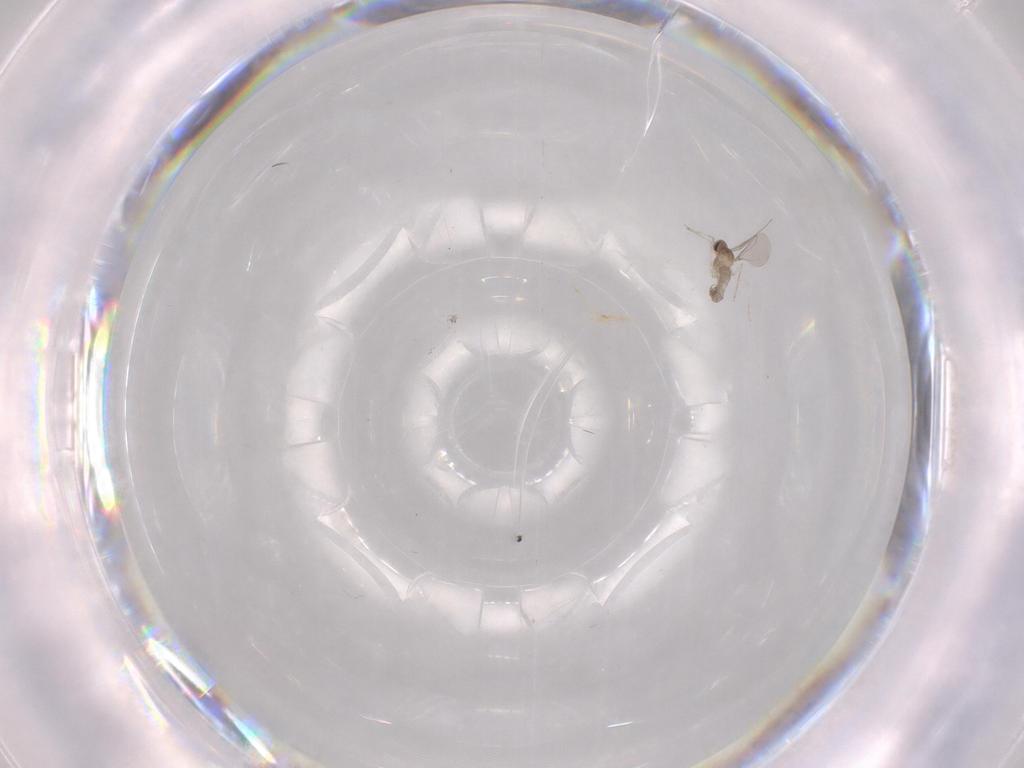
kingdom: Animalia
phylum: Arthropoda
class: Insecta
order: Diptera
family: Cecidomyiidae
